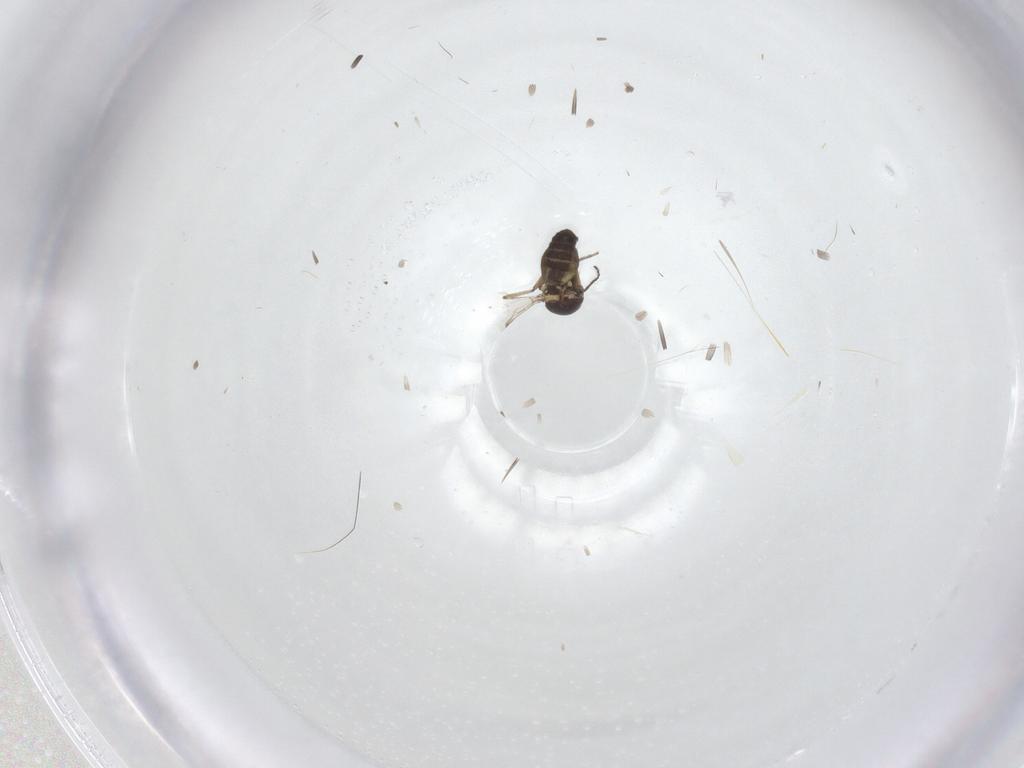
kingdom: Animalia
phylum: Arthropoda
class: Insecta
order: Diptera
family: Ceratopogonidae
